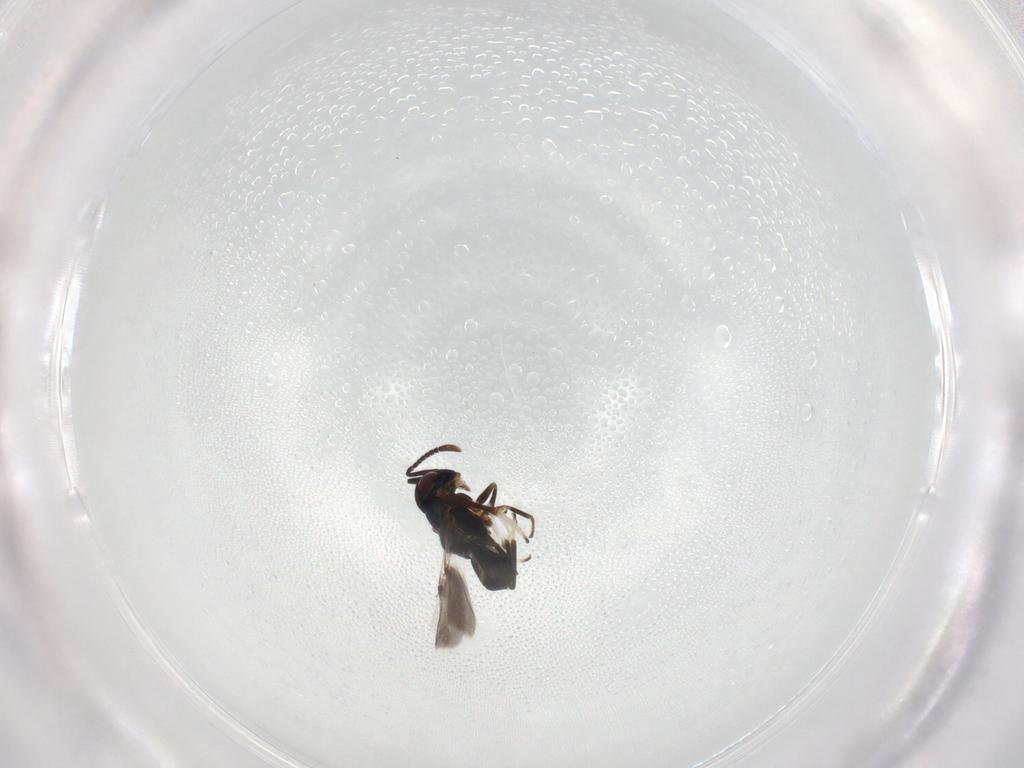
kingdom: Animalia
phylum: Arthropoda
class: Insecta
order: Hymenoptera
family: Encyrtidae
